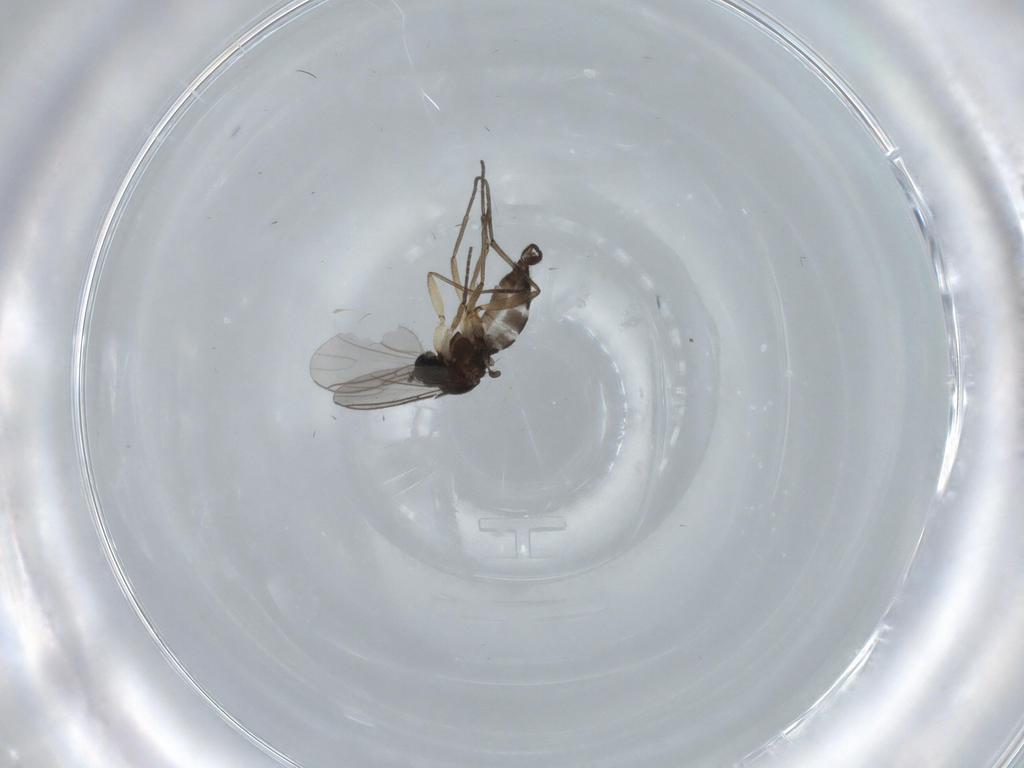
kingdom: Animalia
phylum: Arthropoda
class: Insecta
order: Diptera
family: Sciaridae
